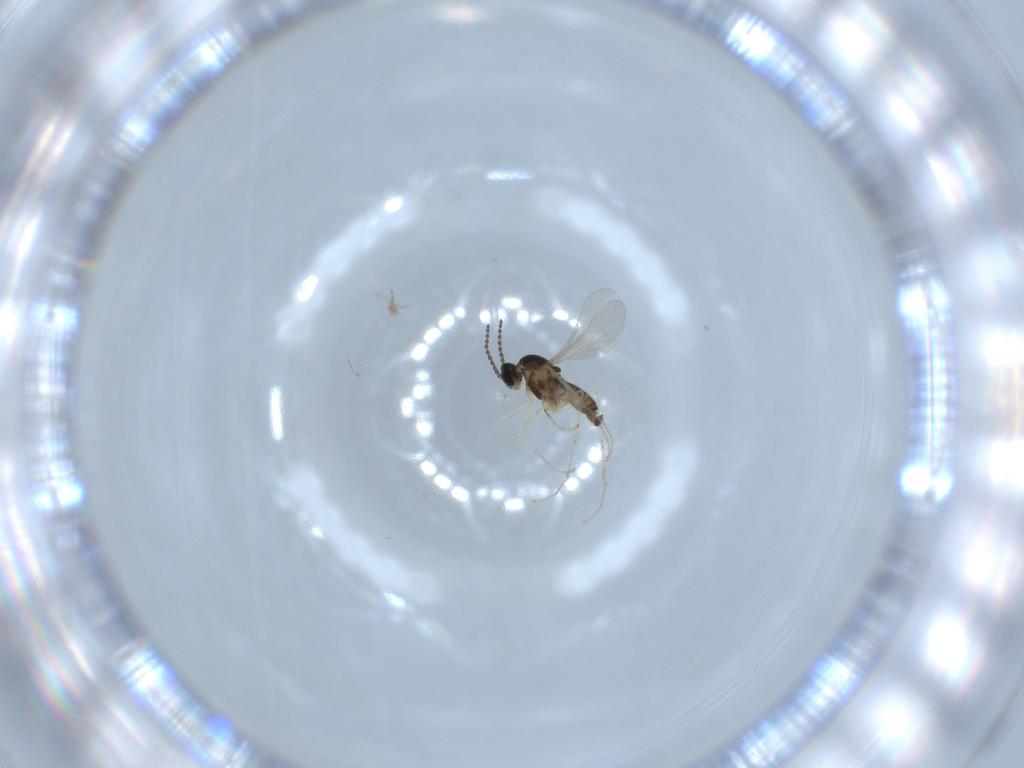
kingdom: Animalia
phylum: Arthropoda
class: Insecta
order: Diptera
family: Cecidomyiidae
